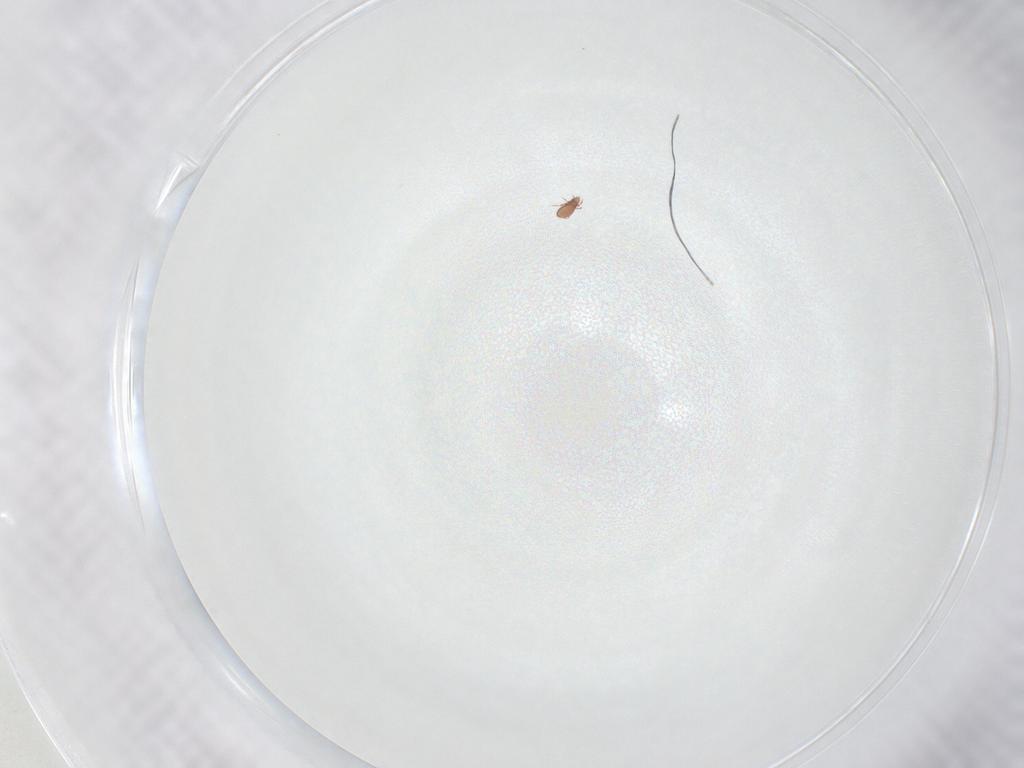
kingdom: Animalia
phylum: Arthropoda
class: Arachnida
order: Sarcoptiformes
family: Oppiidae
